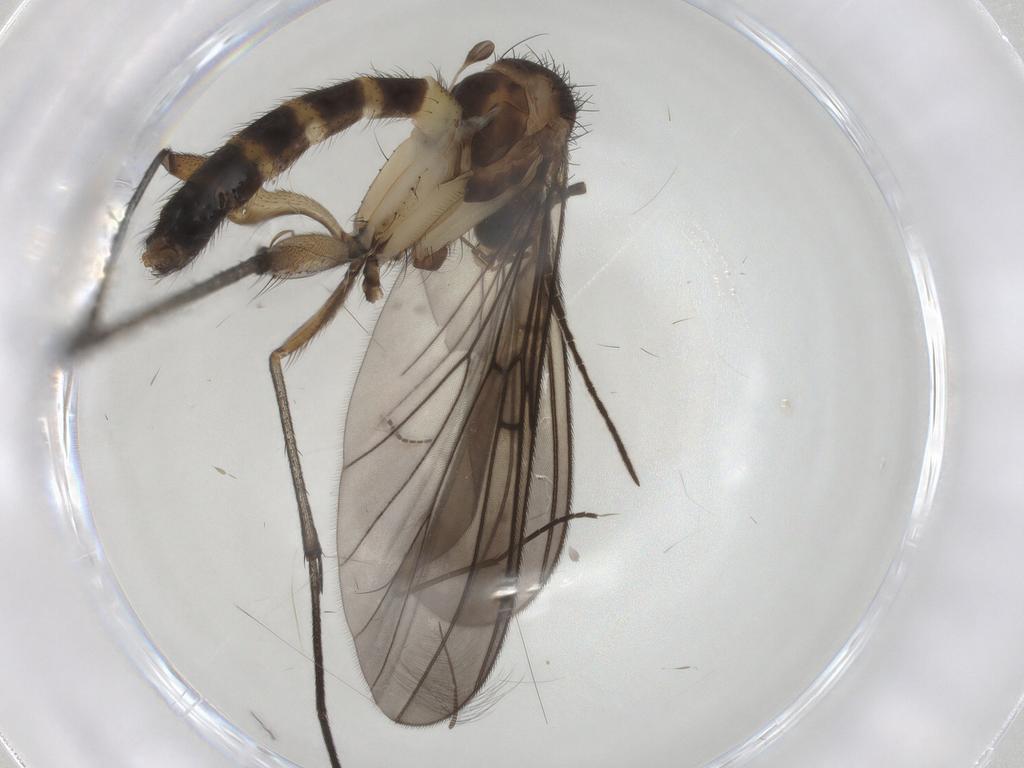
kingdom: Animalia
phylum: Arthropoda
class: Insecta
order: Diptera
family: Mycetophilidae
